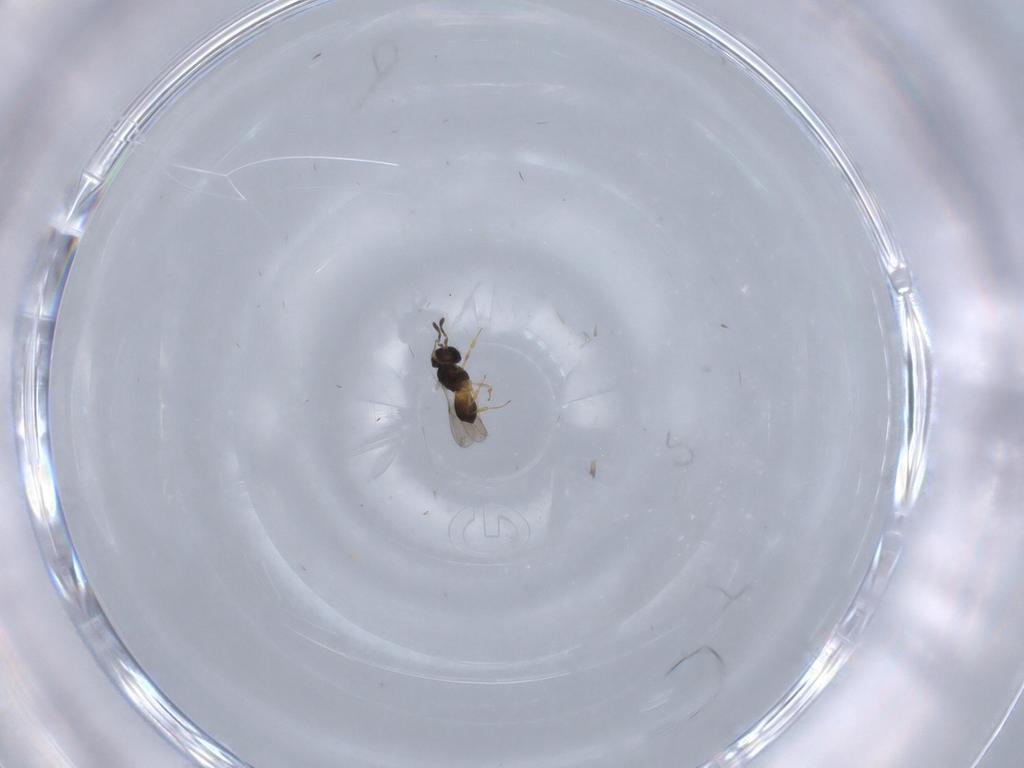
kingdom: Animalia
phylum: Arthropoda
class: Insecta
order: Hymenoptera
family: Scelionidae
